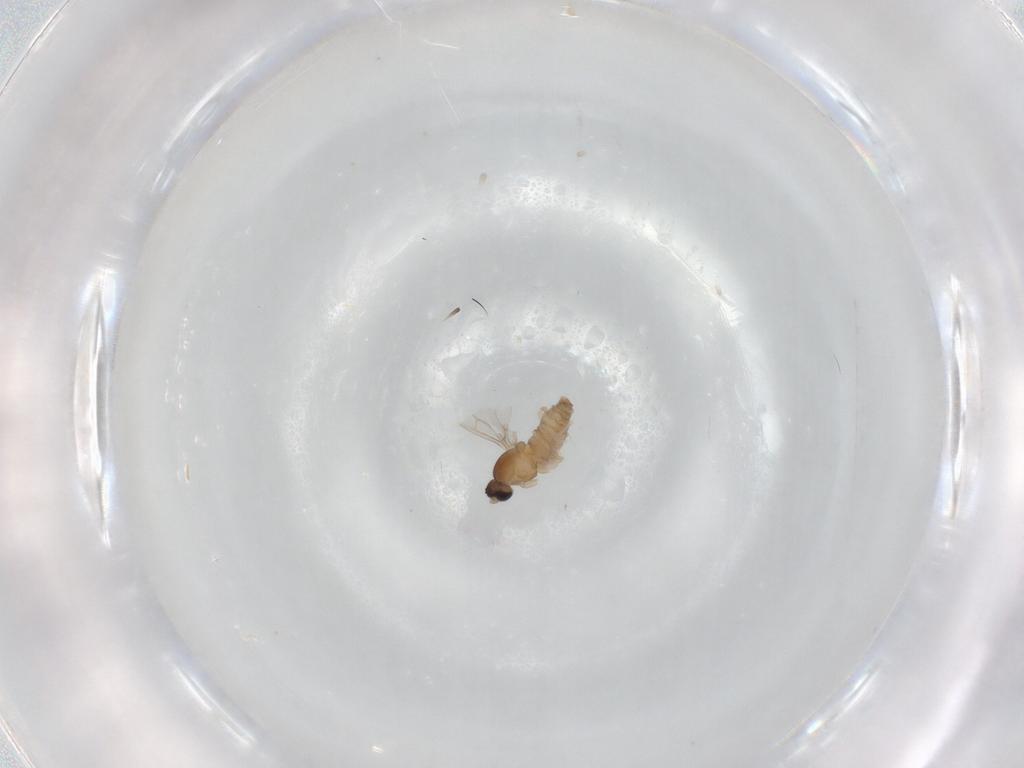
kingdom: Animalia
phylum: Arthropoda
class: Insecta
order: Diptera
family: Cecidomyiidae
